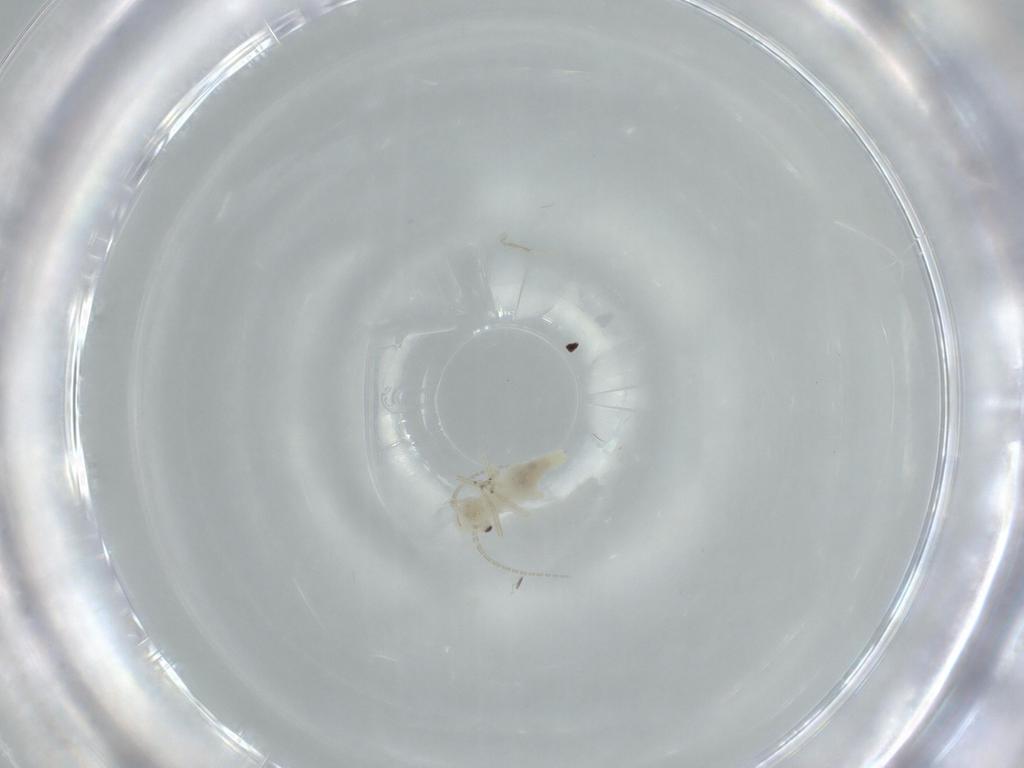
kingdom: Animalia
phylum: Arthropoda
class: Insecta
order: Psocodea
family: Caeciliusidae
